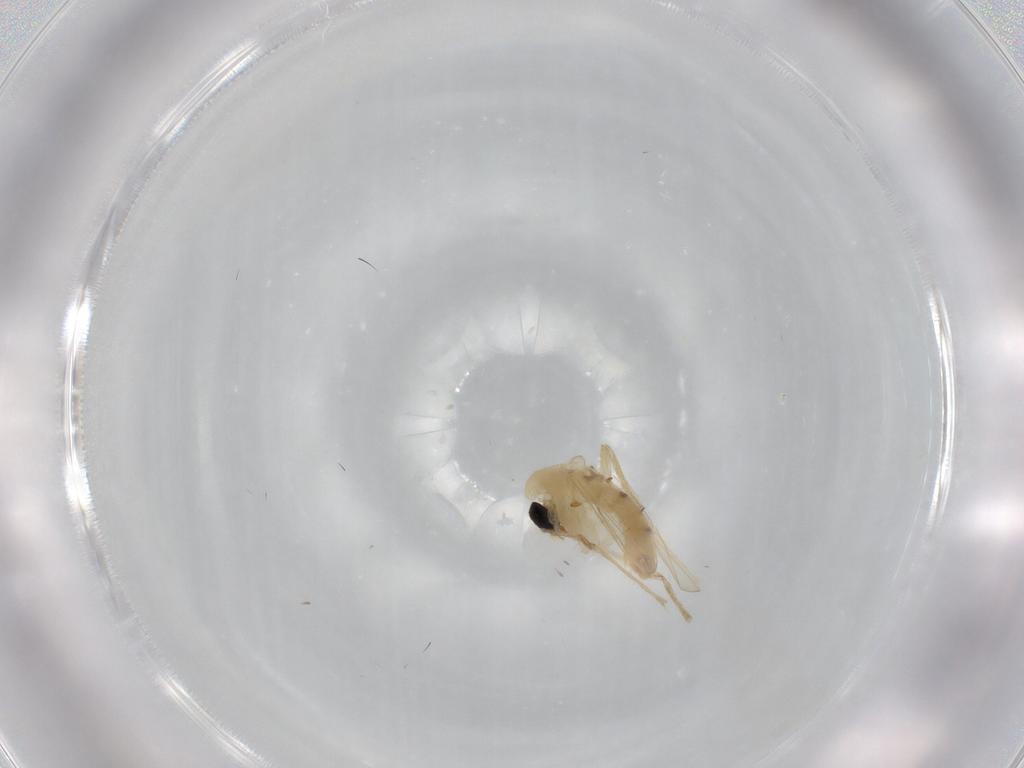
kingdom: Animalia
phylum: Arthropoda
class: Insecta
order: Diptera
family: Chironomidae
